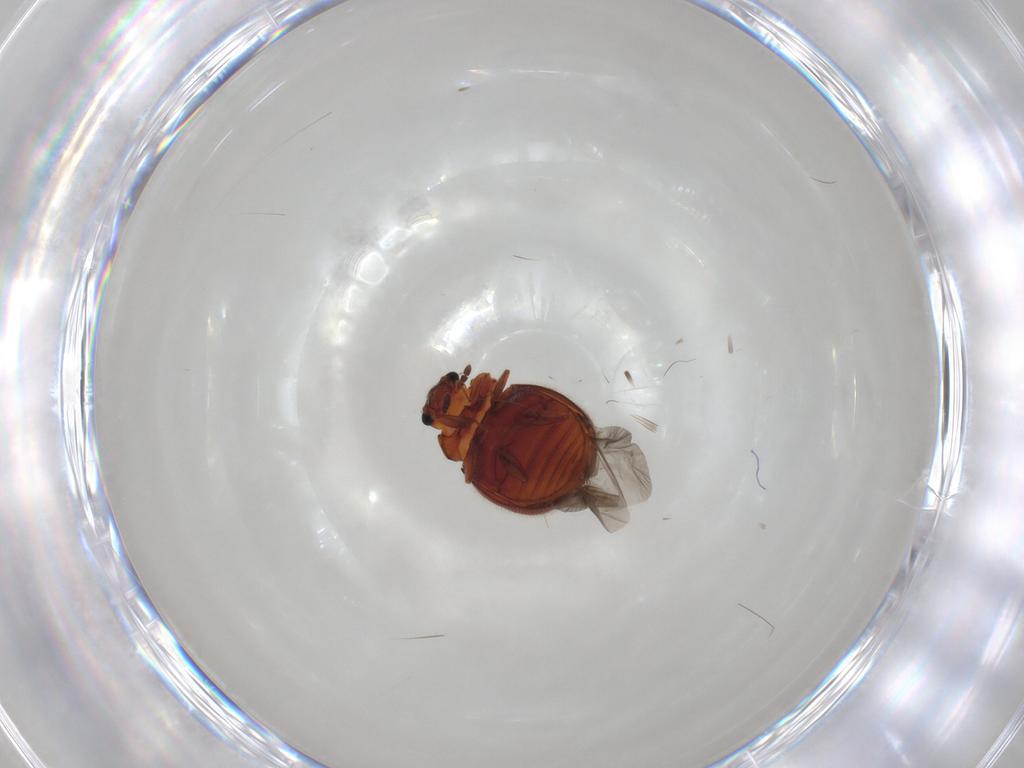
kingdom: Animalia
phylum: Arthropoda
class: Insecta
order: Coleoptera
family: Sphindidae
